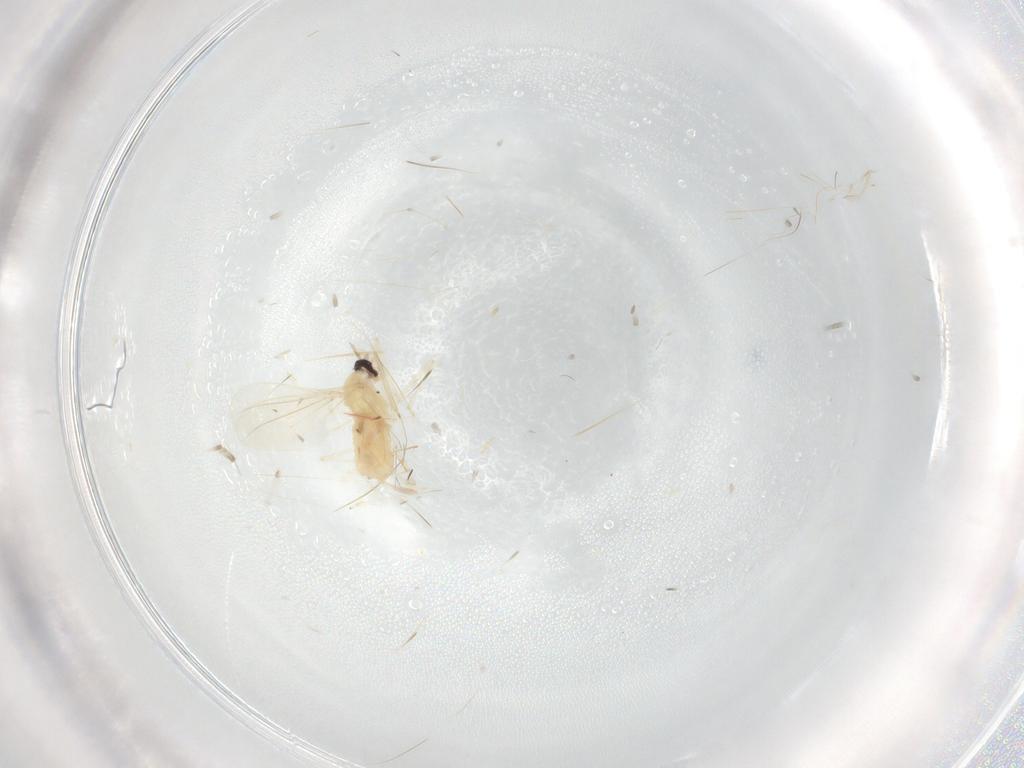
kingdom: Animalia
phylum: Arthropoda
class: Insecta
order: Diptera
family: Cecidomyiidae
